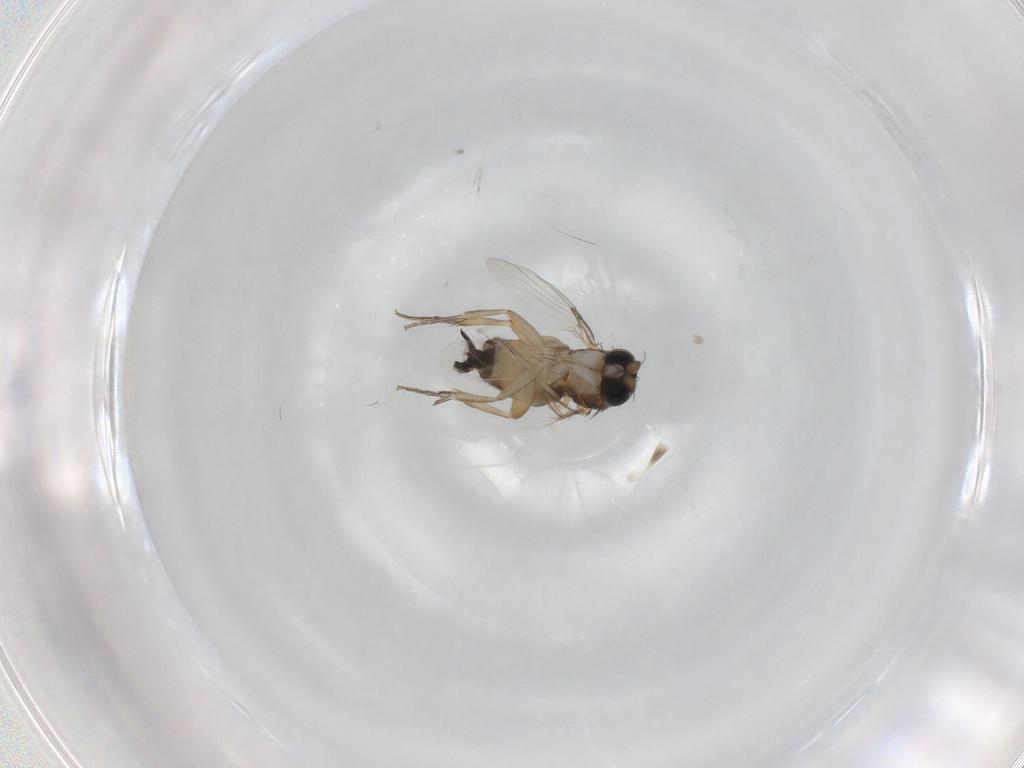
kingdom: Animalia
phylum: Arthropoda
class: Insecta
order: Diptera
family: Phoridae
